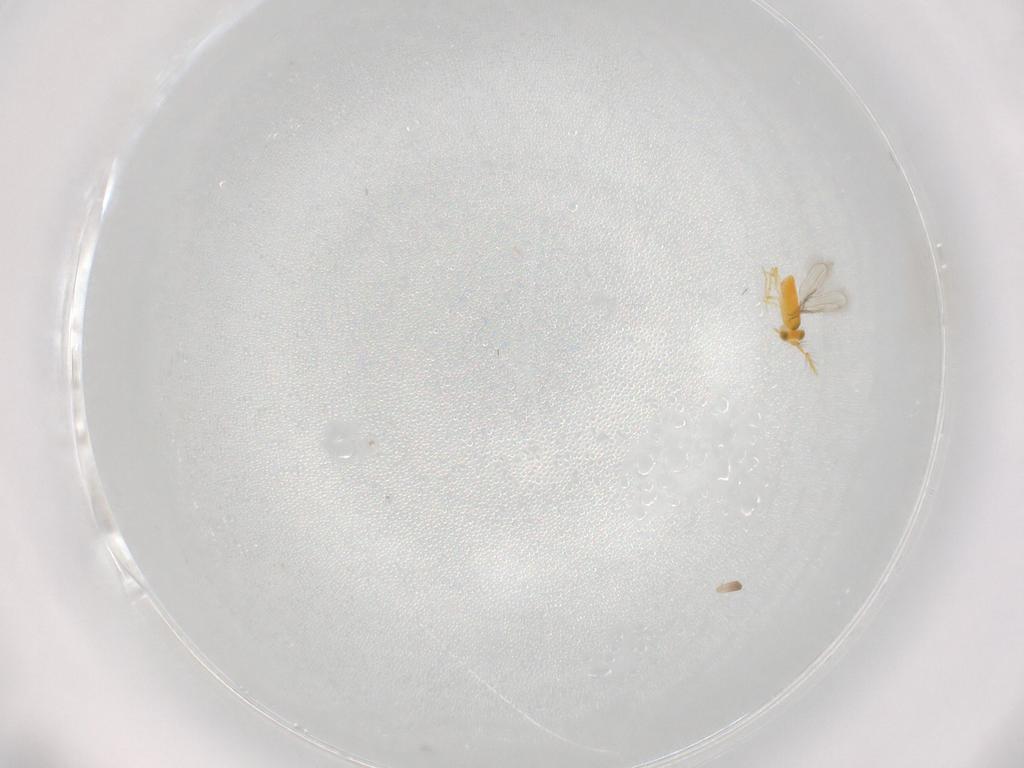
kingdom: Animalia
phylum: Arthropoda
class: Insecta
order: Hymenoptera
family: Aphelinidae
